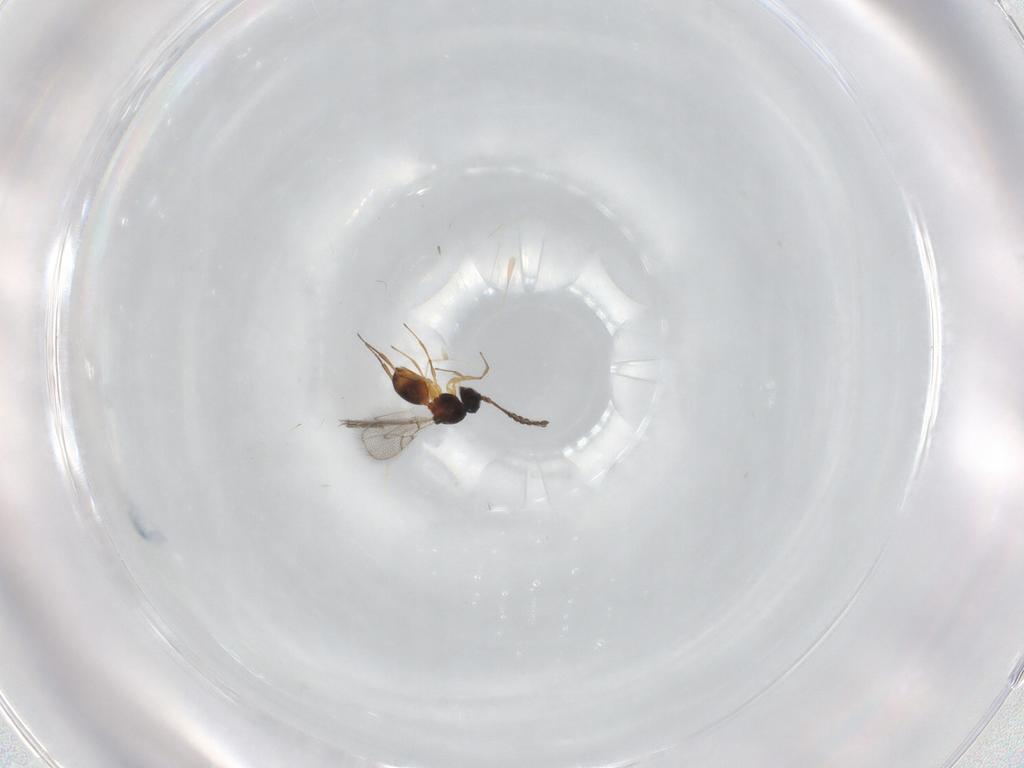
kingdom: Animalia
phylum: Arthropoda
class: Insecta
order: Hymenoptera
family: Figitidae
